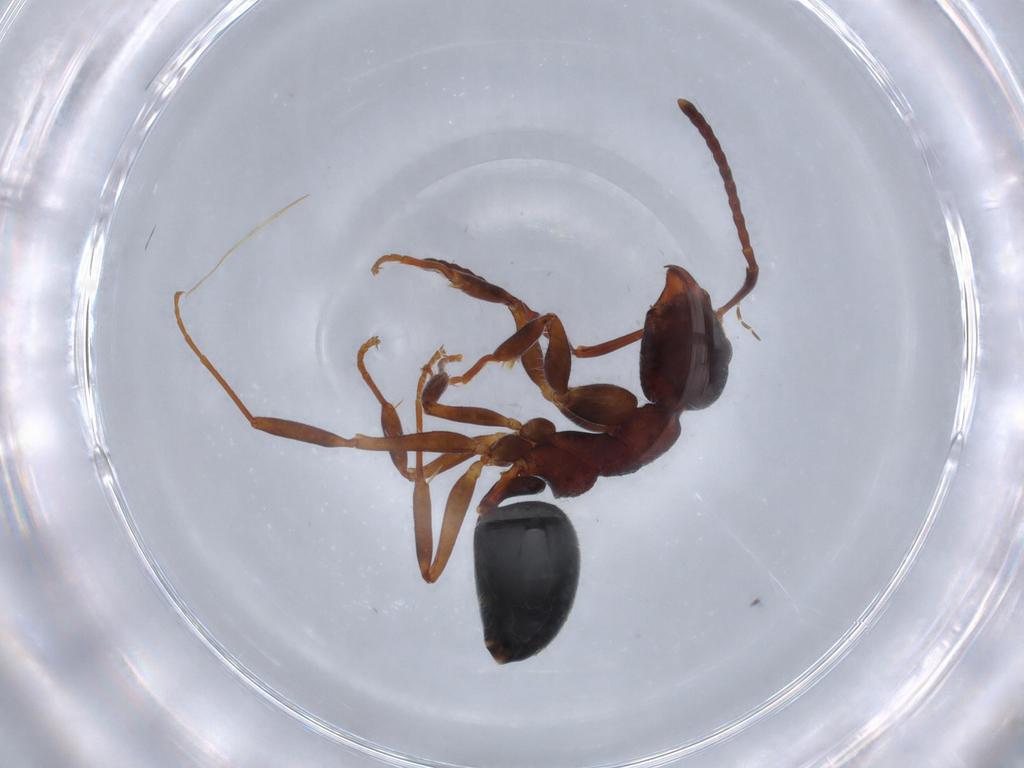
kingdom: Animalia
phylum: Arthropoda
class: Insecta
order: Hymenoptera
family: Formicidae
